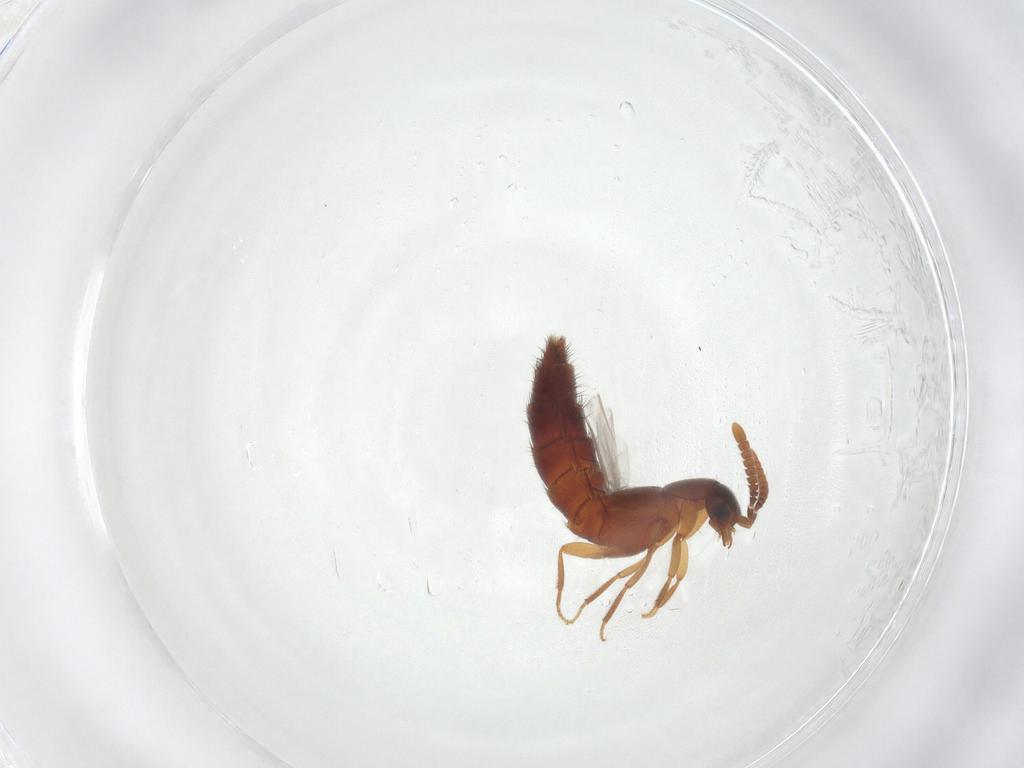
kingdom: Animalia
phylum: Arthropoda
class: Insecta
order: Coleoptera
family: Staphylinidae
